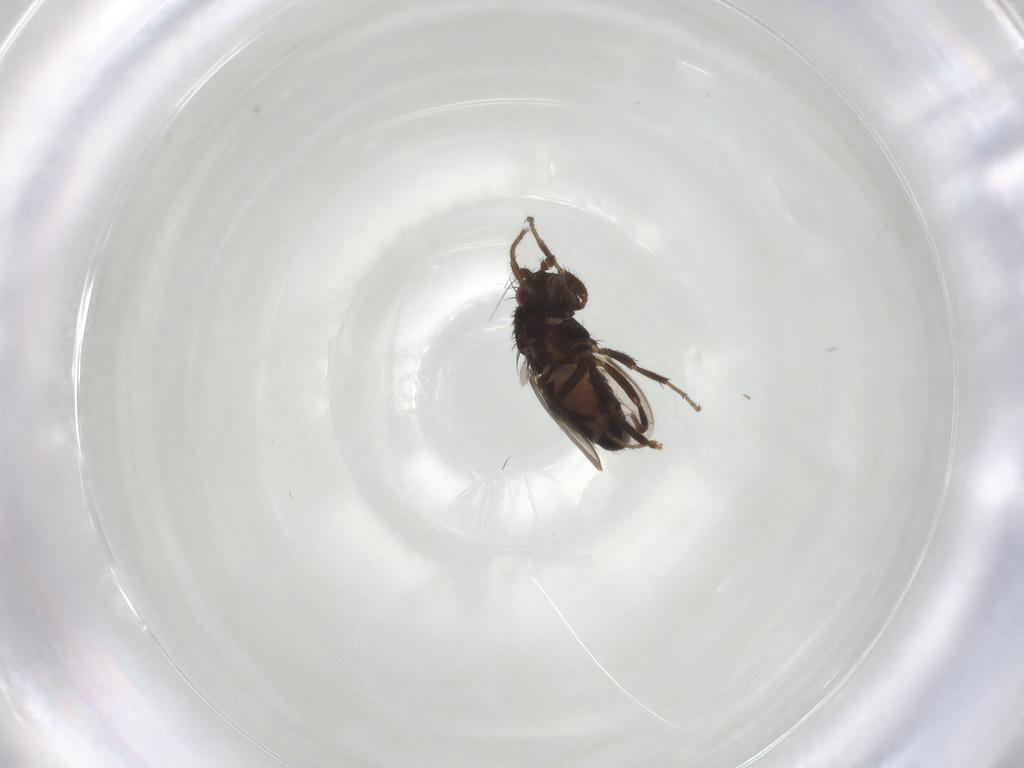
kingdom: Animalia
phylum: Arthropoda
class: Insecta
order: Diptera
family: Sphaeroceridae
